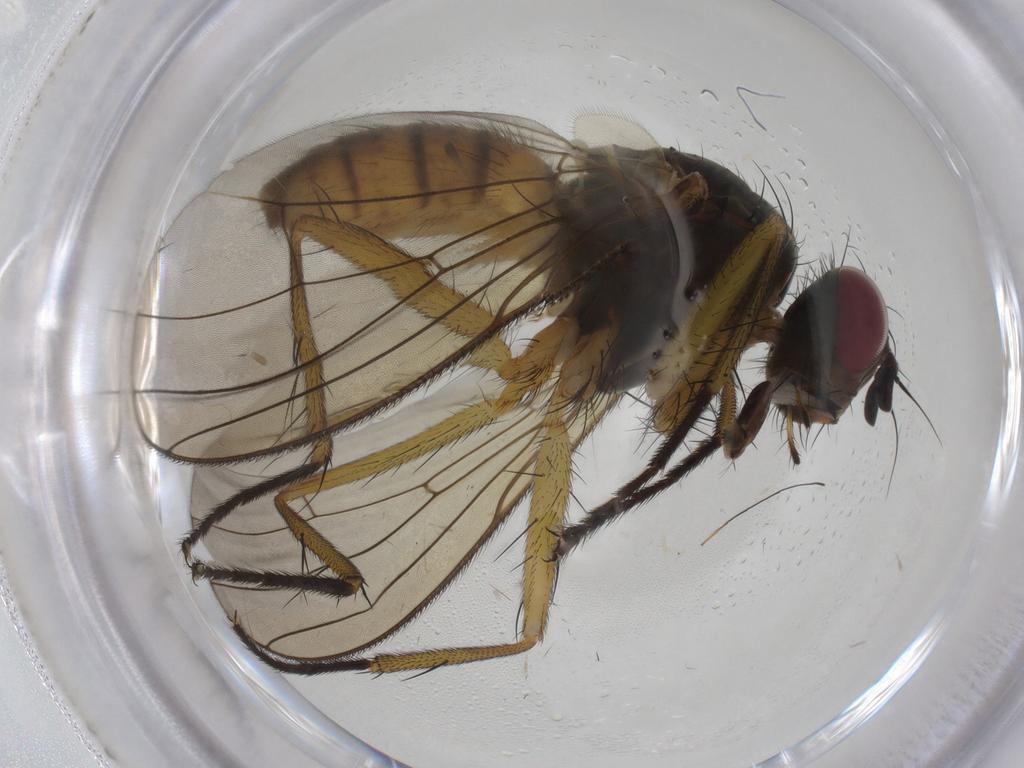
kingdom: Animalia
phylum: Arthropoda
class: Insecta
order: Diptera
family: Muscidae
